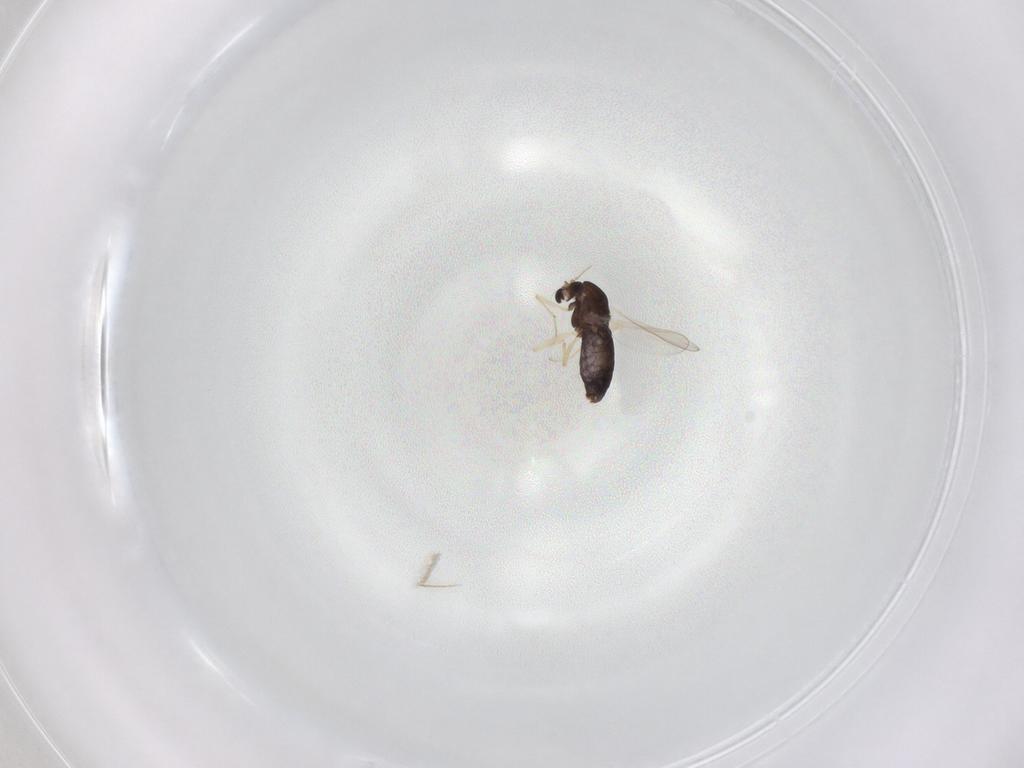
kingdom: Animalia
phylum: Arthropoda
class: Insecta
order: Diptera
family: Chironomidae
